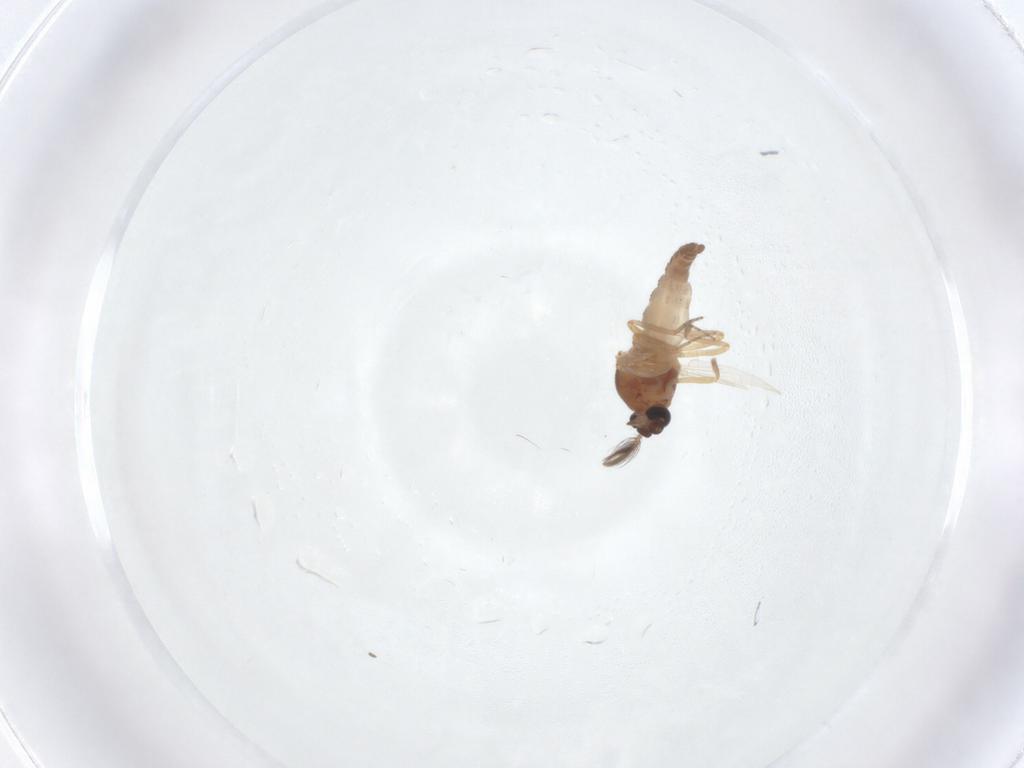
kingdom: Animalia
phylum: Arthropoda
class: Insecta
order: Diptera
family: Ceratopogonidae
